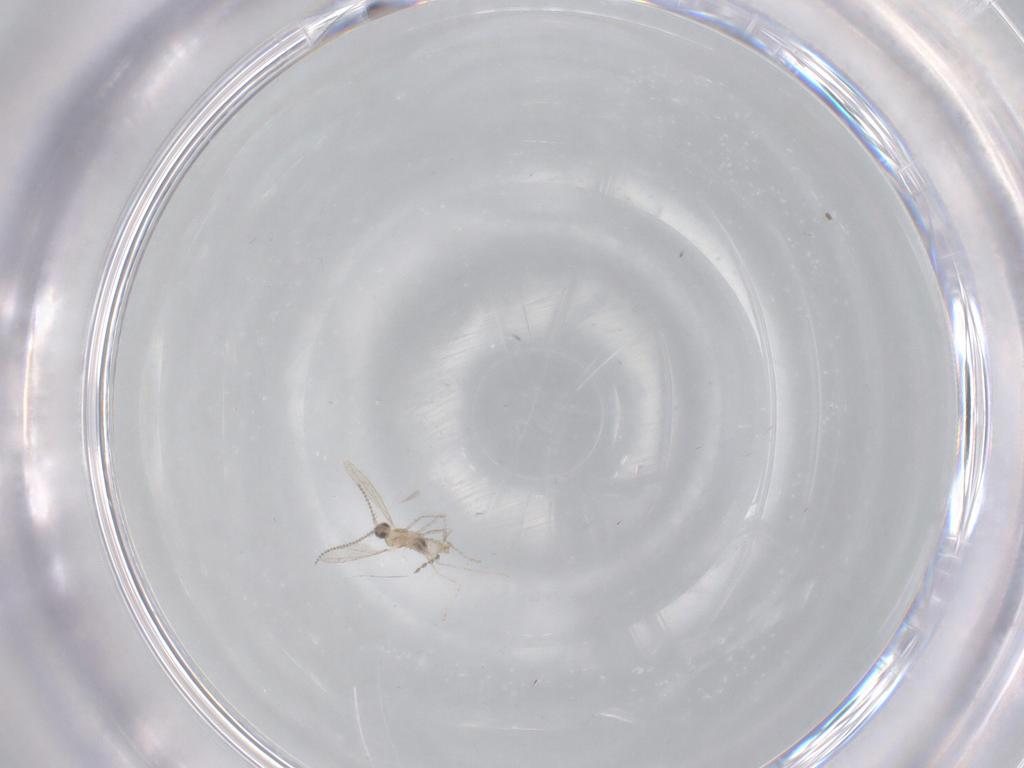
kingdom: Animalia
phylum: Arthropoda
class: Insecta
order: Diptera
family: Cecidomyiidae
